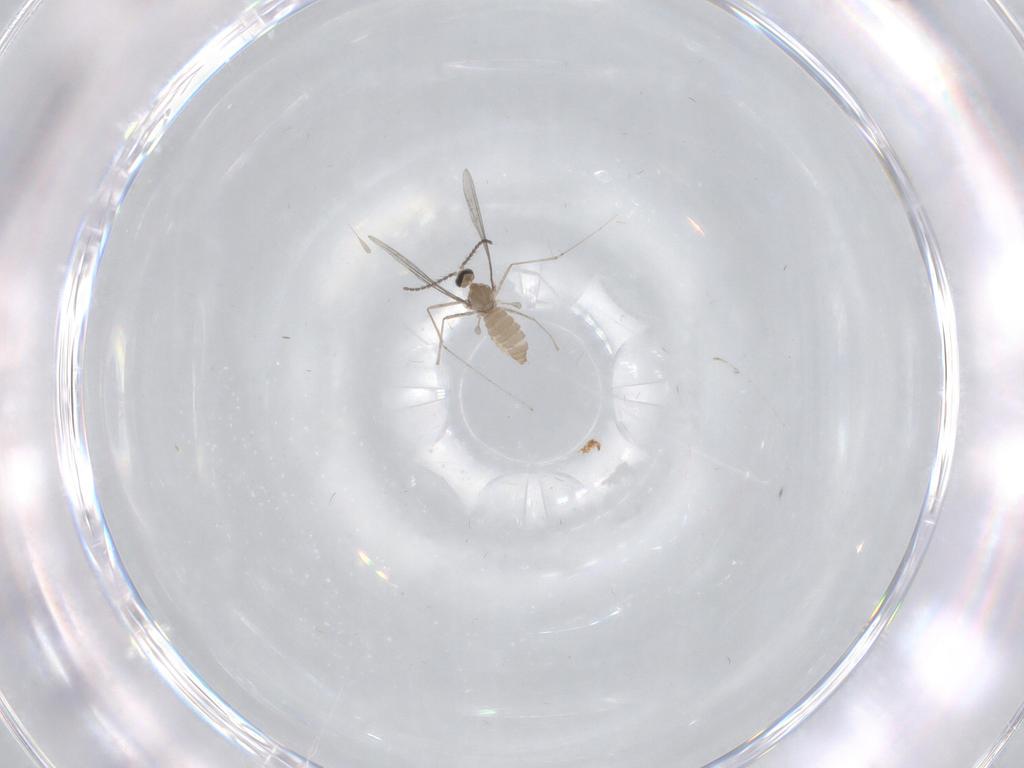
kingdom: Animalia
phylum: Arthropoda
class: Insecta
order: Diptera
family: Cecidomyiidae
